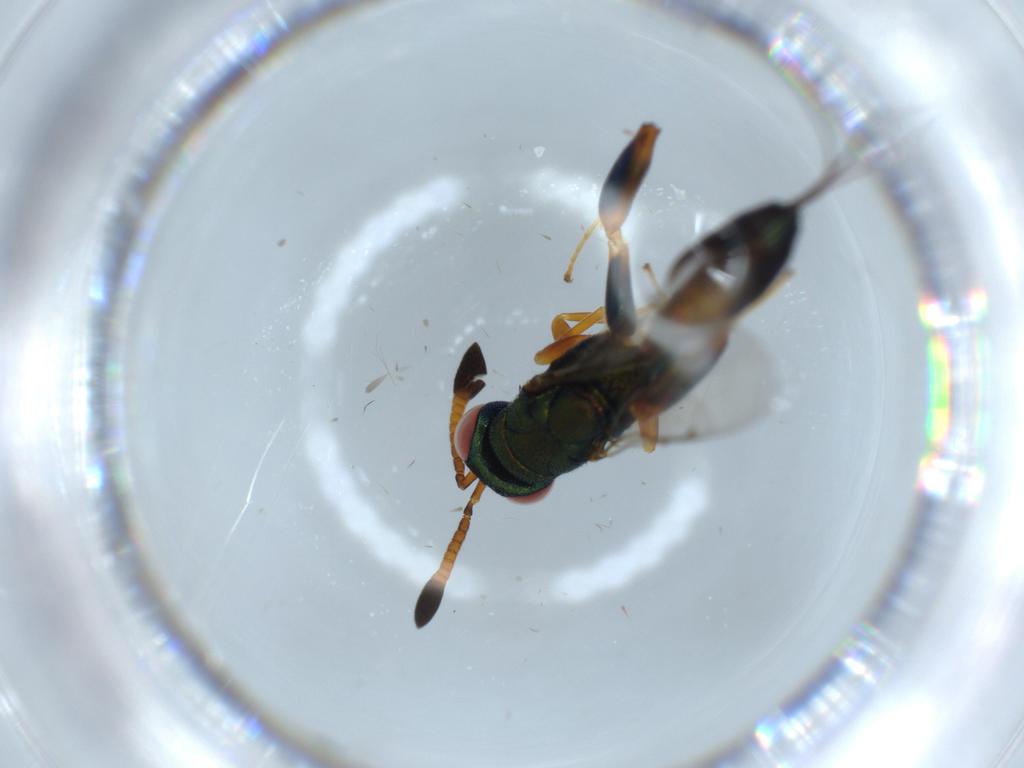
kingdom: Animalia
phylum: Arthropoda
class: Insecta
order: Hymenoptera
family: Torymidae
